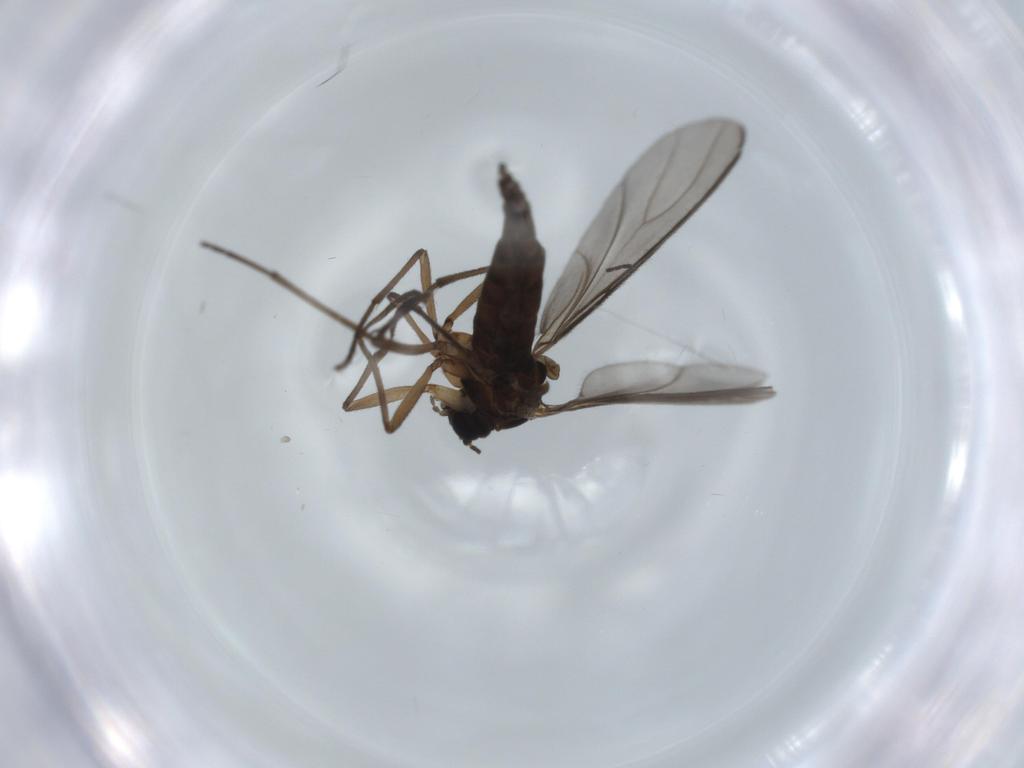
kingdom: Animalia
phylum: Arthropoda
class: Insecta
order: Diptera
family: Sciaridae
